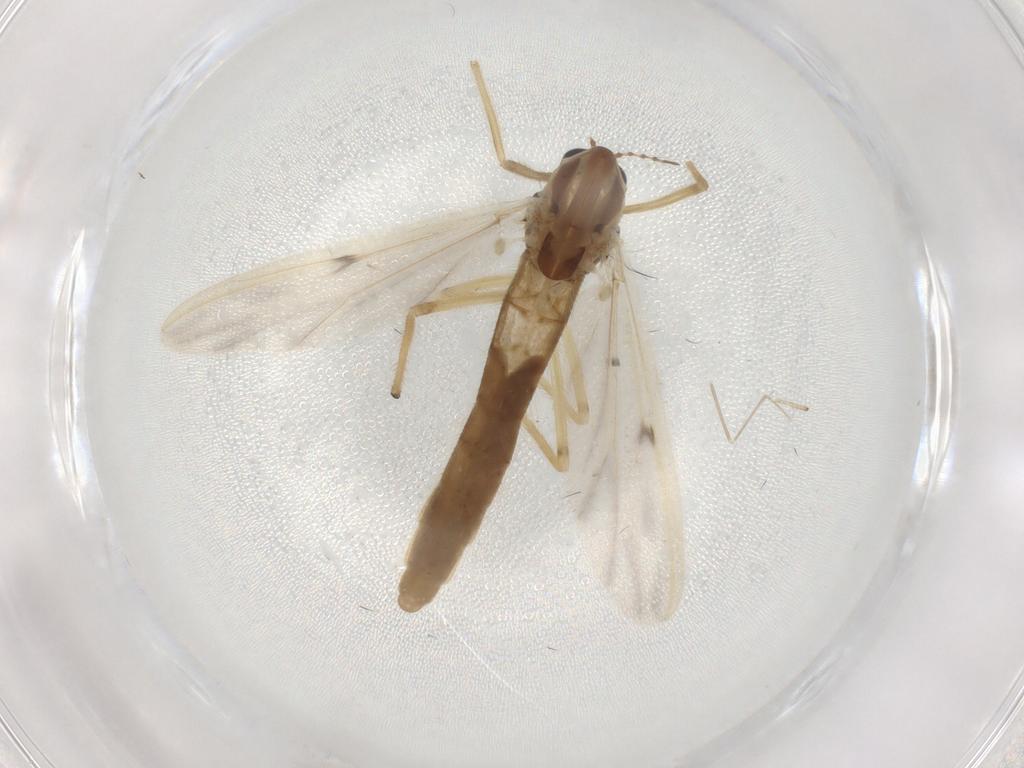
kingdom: Animalia
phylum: Arthropoda
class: Insecta
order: Diptera
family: Chironomidae
